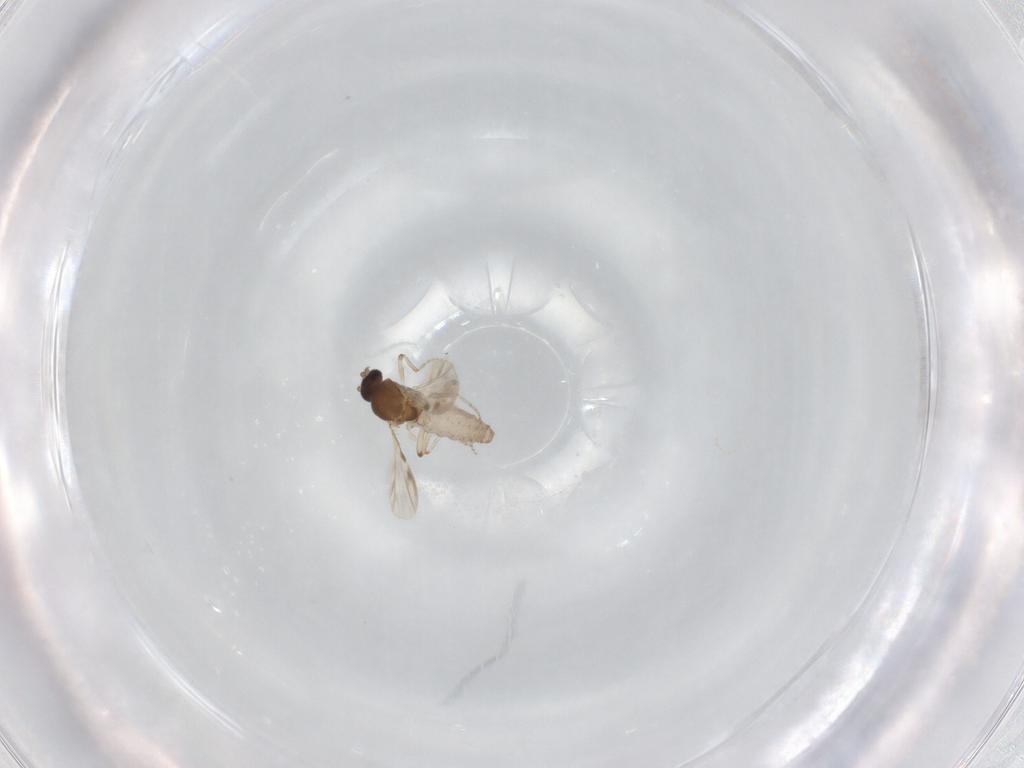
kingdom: Animalia
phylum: Arthropoda
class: Insecta
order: Diptera
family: Ceratopogonidae
